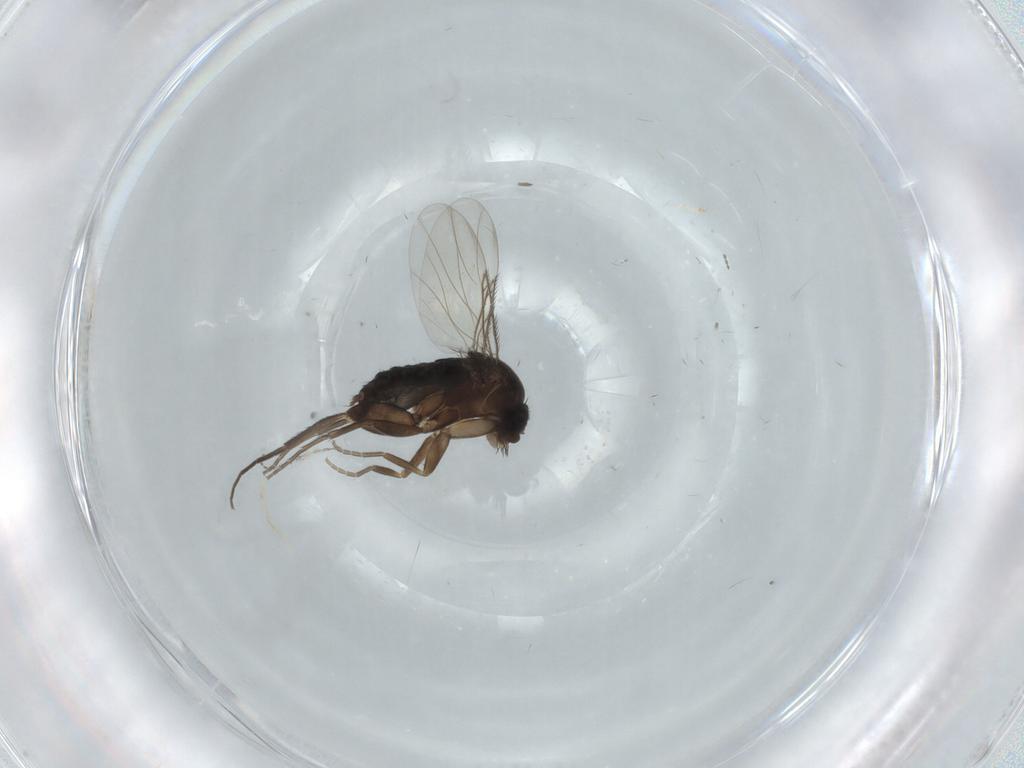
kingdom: Animalia
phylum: Arthropoda
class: Insecta
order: Diptera
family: Phoridae
